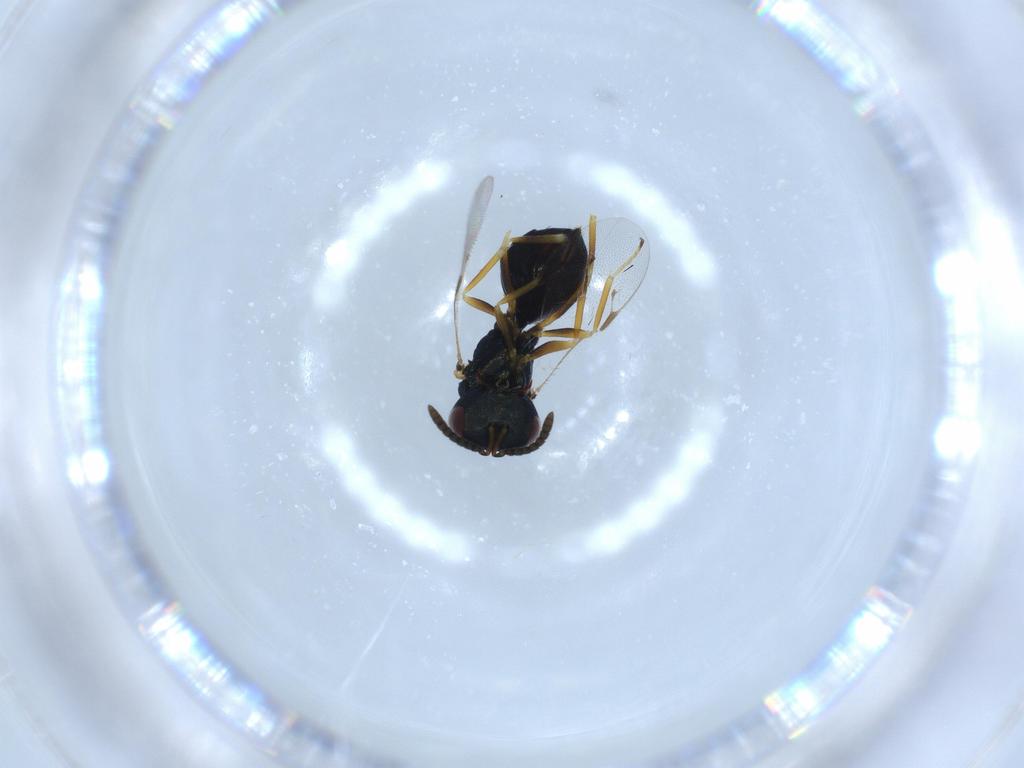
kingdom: Animalia
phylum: Arthropoda
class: Insecta
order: Hymenoptera
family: Pteromalidae
